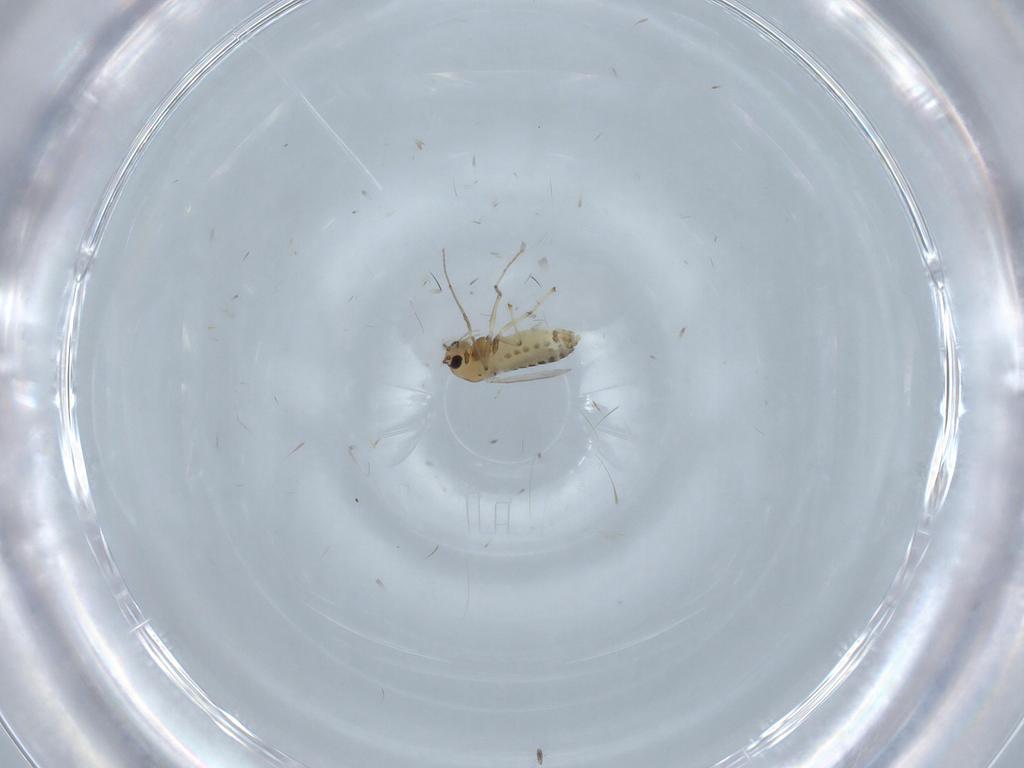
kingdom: Animalia
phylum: Arthropoda
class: Insecta
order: Diptera
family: Chironomidae
